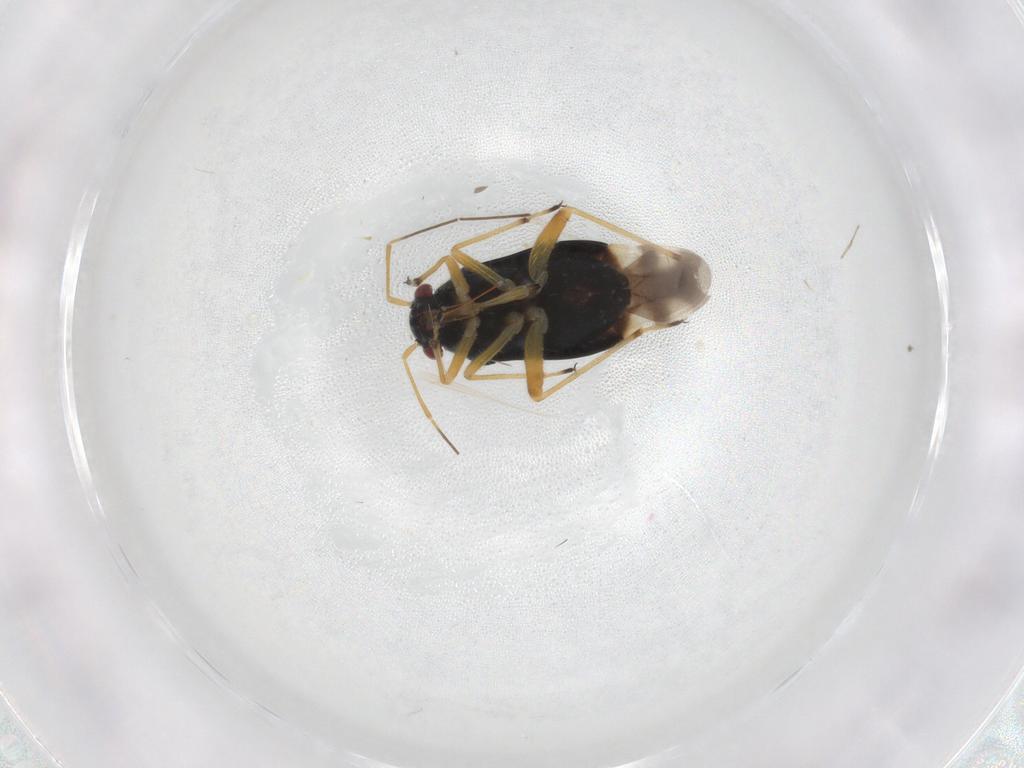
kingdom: Animalia
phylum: Arthropoda
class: Insecta
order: Hemiptera
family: Miridae
